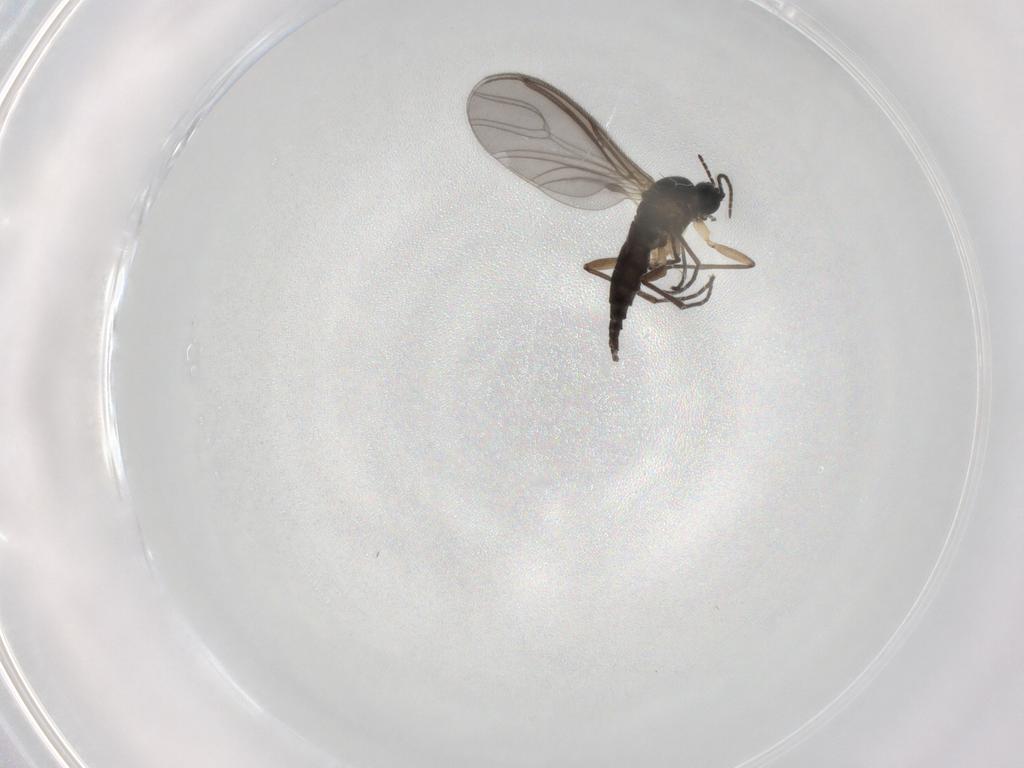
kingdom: Animalia
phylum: Arthropoda
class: Insecta
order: Diptera
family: Sciaridae
